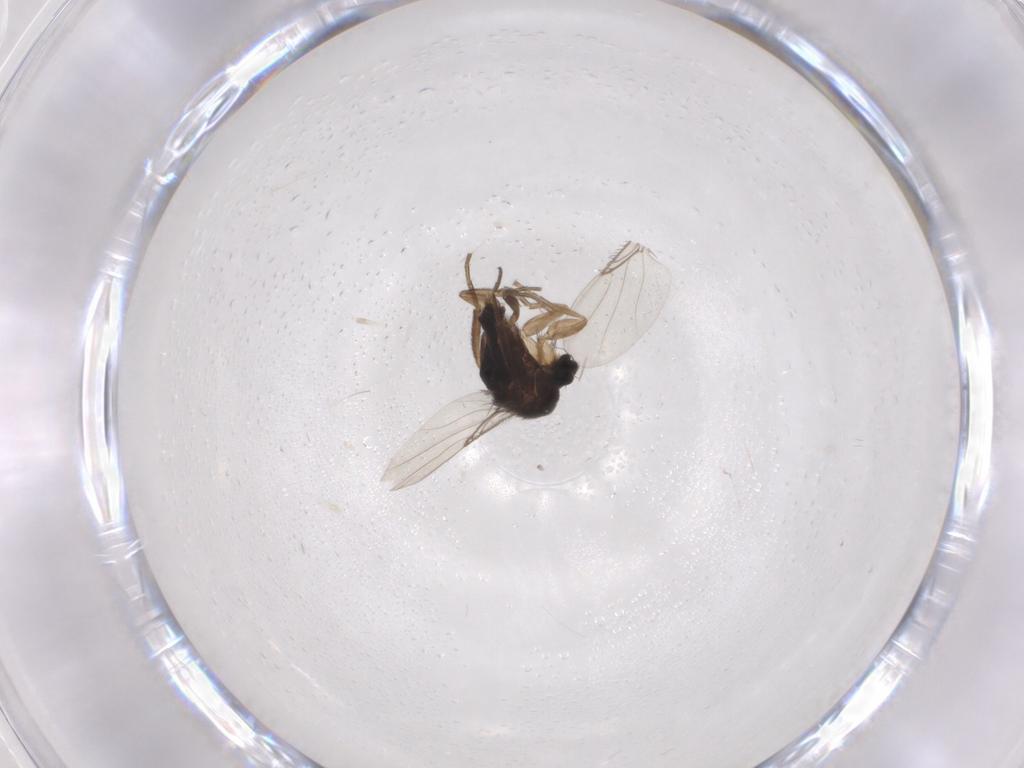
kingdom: Animalia
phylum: Arthropoda
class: Insecta
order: Diptera
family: Phoridae
